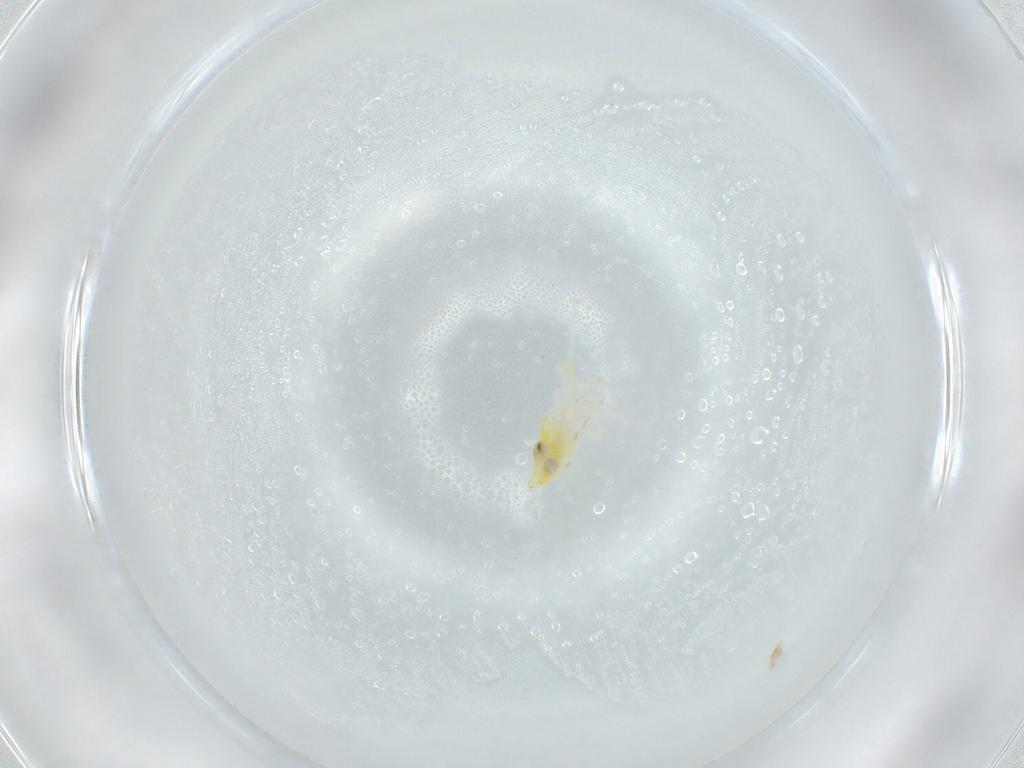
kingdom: Animalia
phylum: Arthropoda
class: Insecta
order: Hemiptera
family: Cicadellidae
